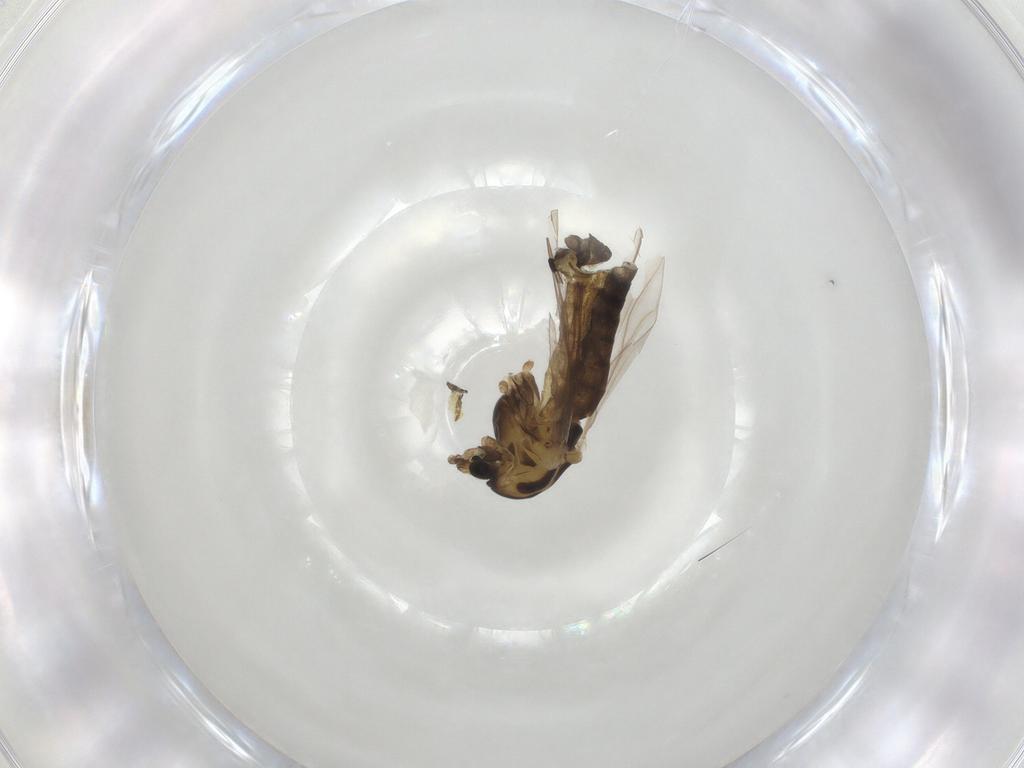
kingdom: Animalia
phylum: Arthropoda
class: Insecta
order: Diptera
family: Chironomidae
